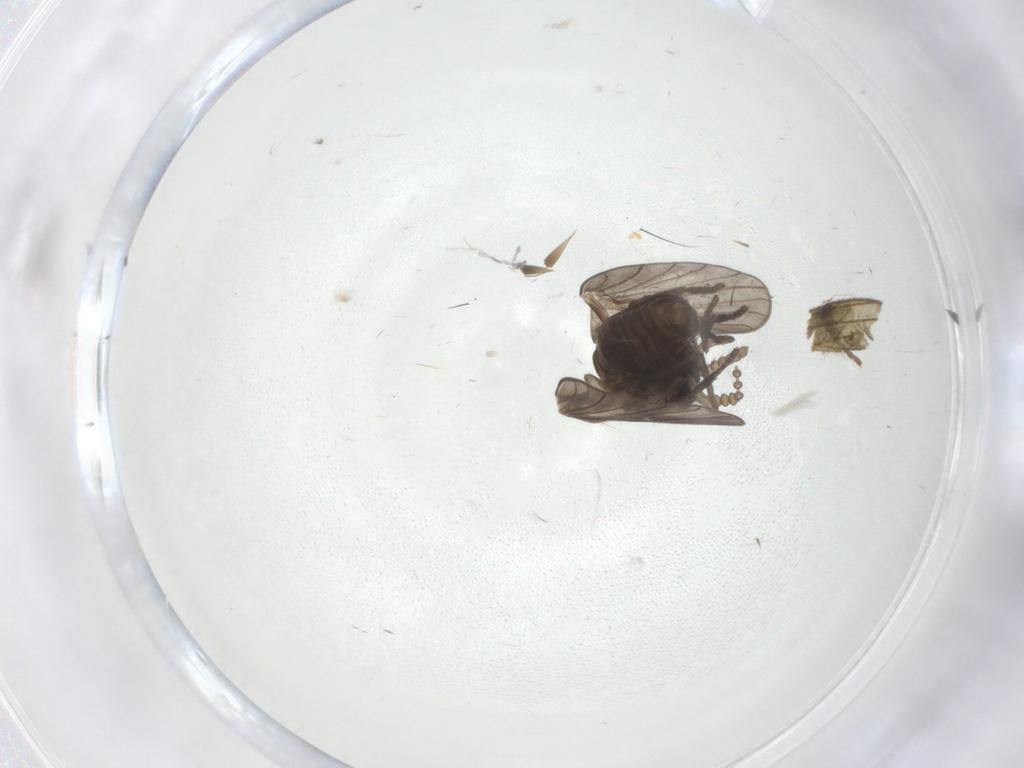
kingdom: Animalia
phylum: Arthropoda
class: Insecta
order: Diptera
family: Psychodidae
